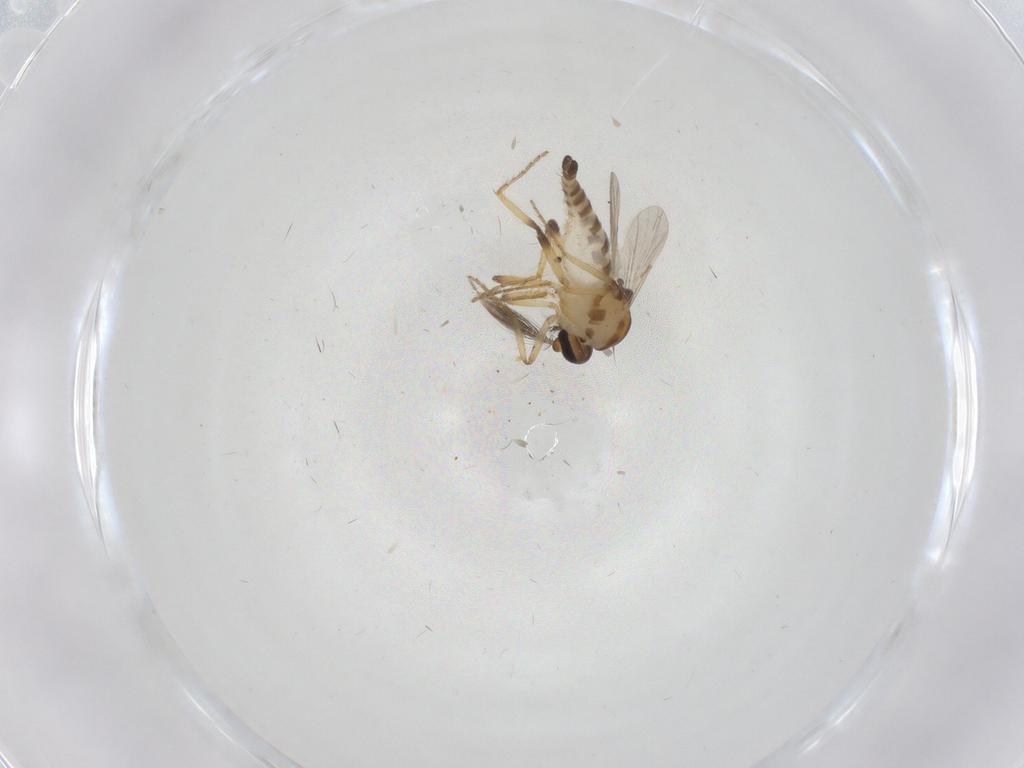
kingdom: Animalia
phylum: Arthropoda
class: Insecta
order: Diptera
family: Ceratopogonidae
